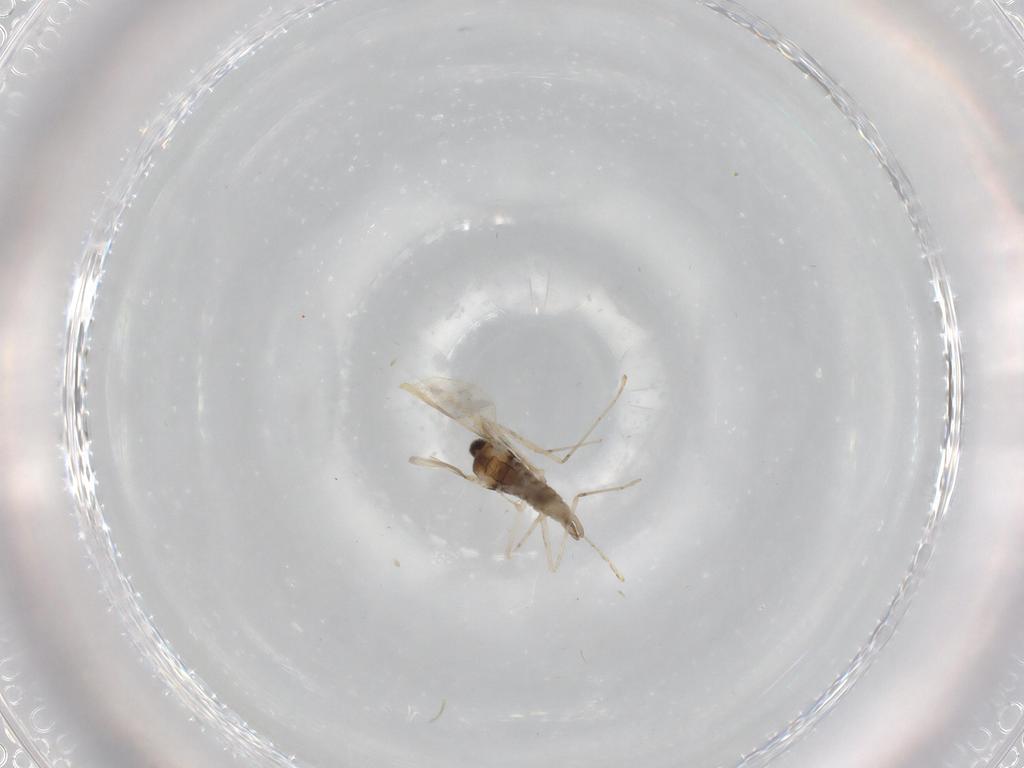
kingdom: Animalia
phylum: Arthropoda
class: Insecta
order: Diptera
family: Cecidomyiidae
